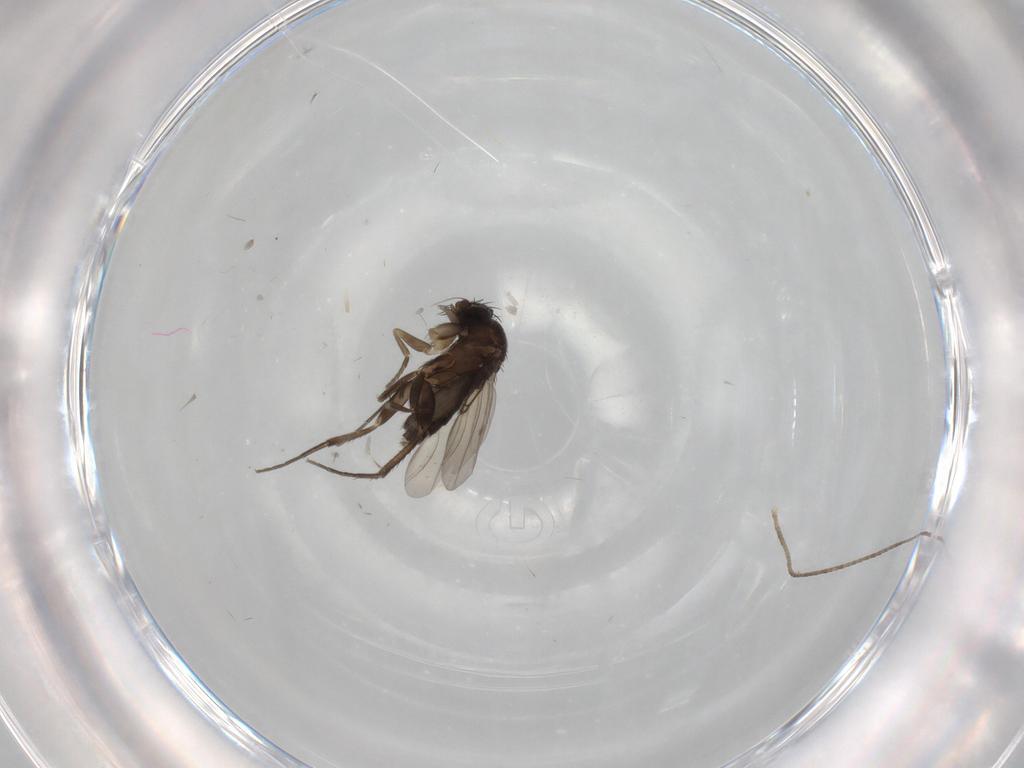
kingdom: Animalia
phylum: Arthropoda
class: Insecta
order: Diptera
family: Phoridae
